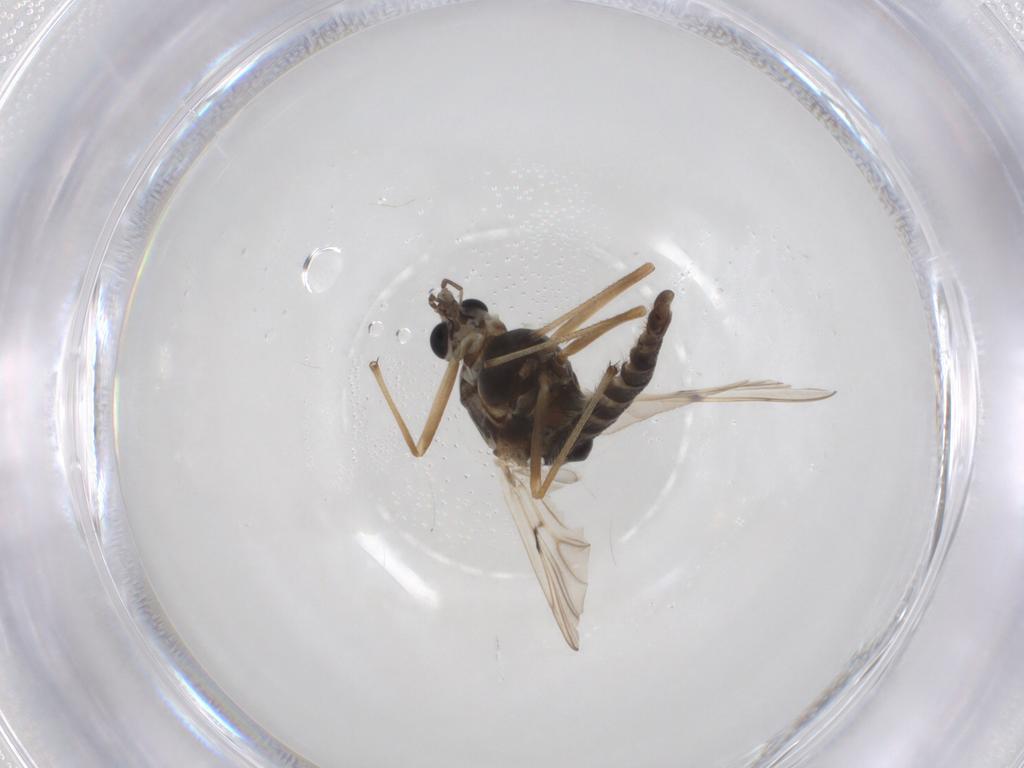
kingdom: Animalia
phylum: Arthropoda
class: Insecta
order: Diptera
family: Chironomidae
